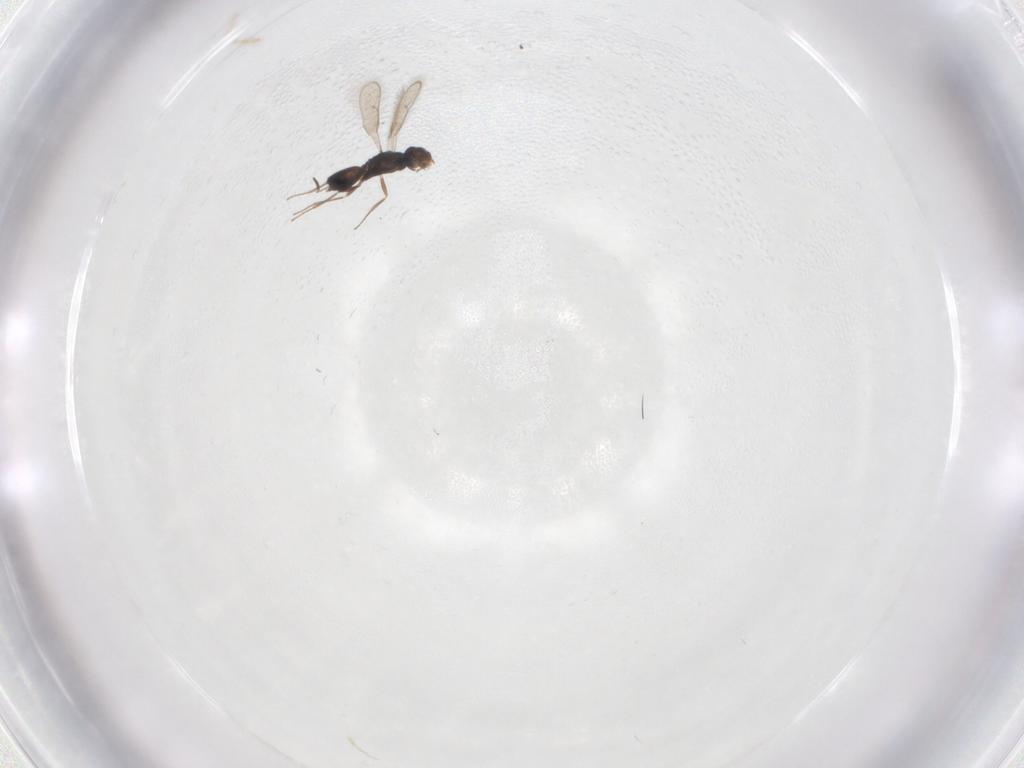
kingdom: Animalia
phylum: Arthropoda
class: Insecta
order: Hymenoptera
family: Pteromalidae
